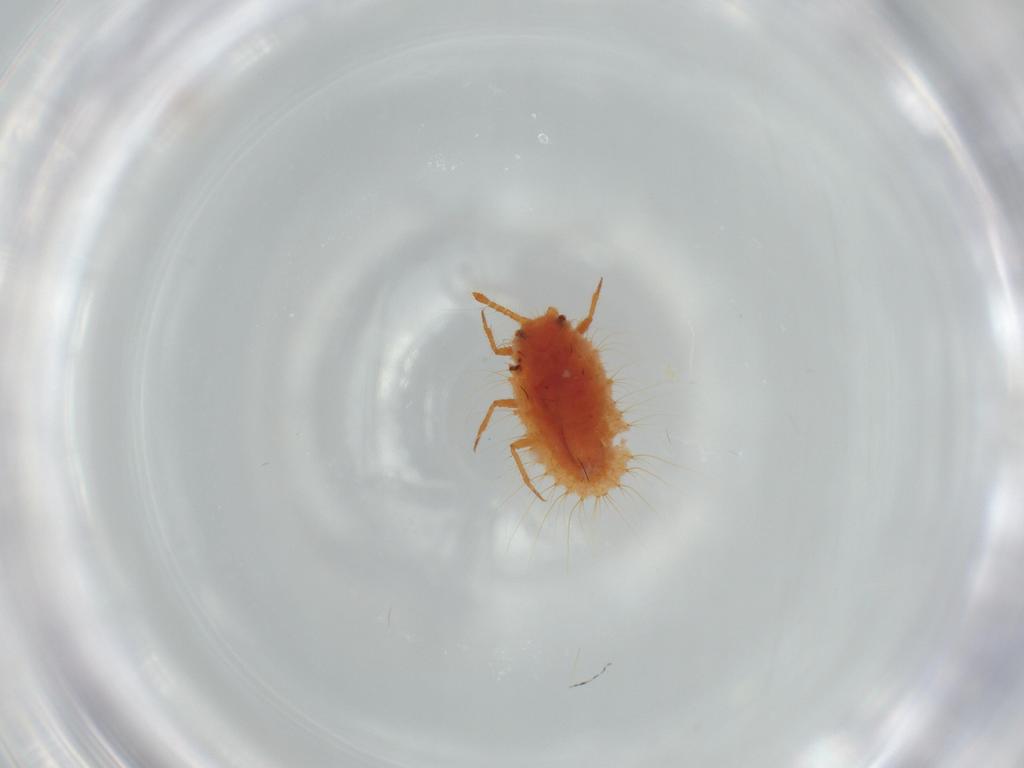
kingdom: Animalia
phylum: Arthropoda
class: Insecta
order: Hemiptera
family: Coccoidea_incertae_sedis
